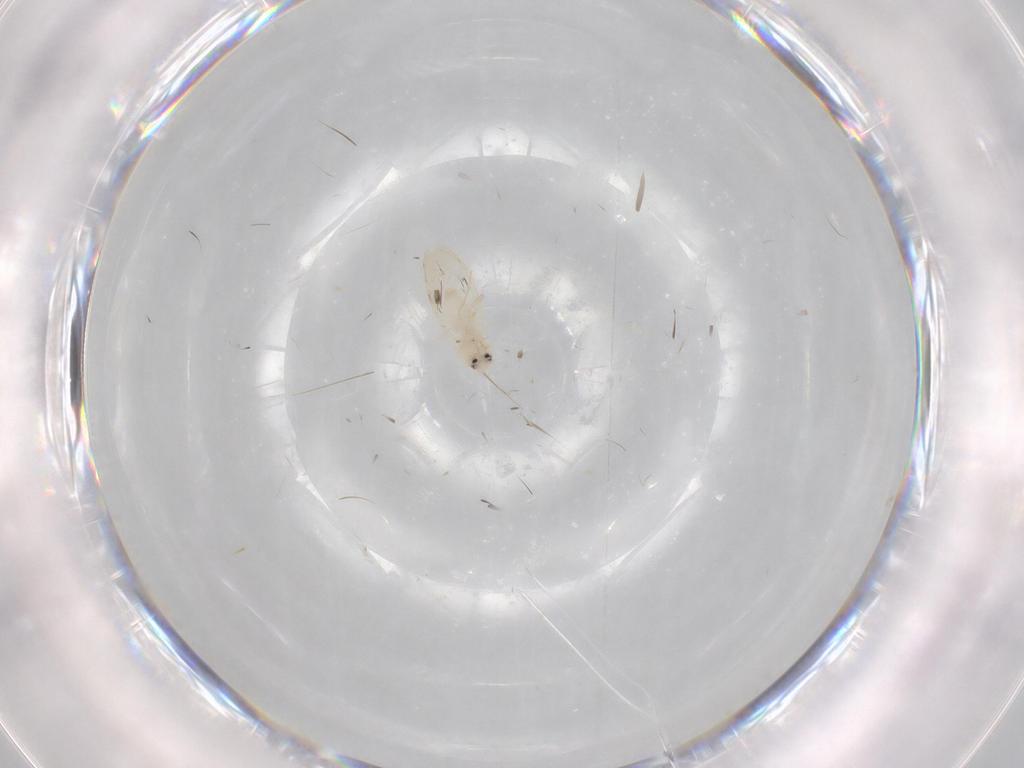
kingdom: Animalia
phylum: Arthropoda
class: Insecta
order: Hemiptera
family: Aleyrodidae
